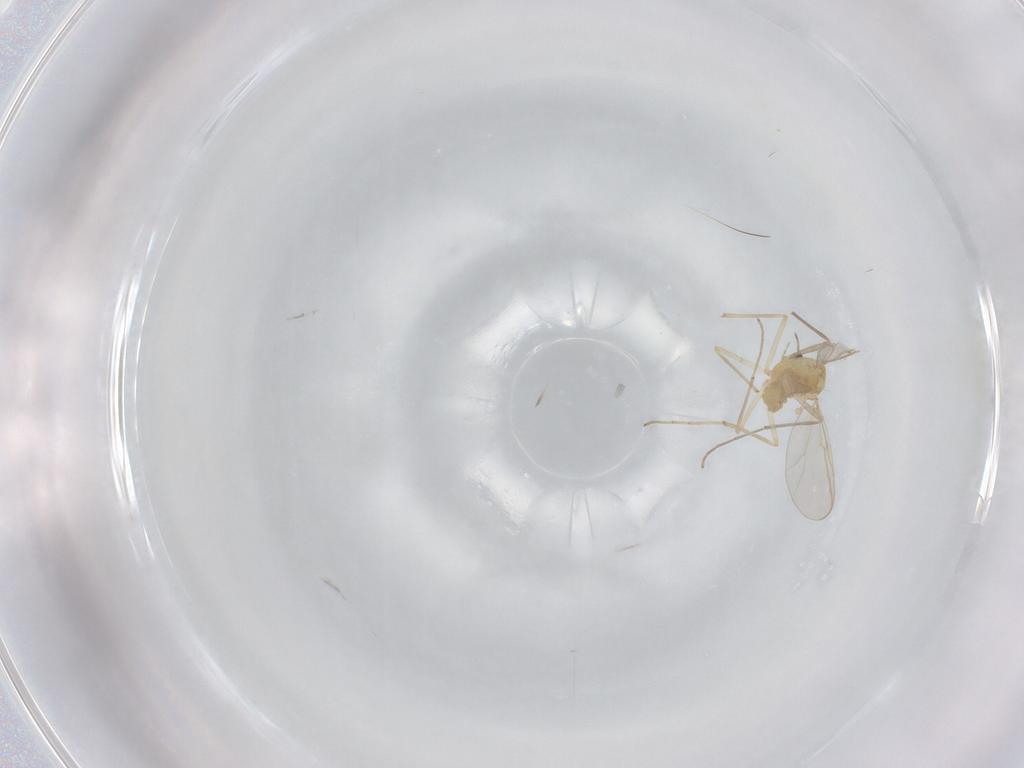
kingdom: Animalia
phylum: Arthropoda
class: Insecta
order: Diptera
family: Chironomidae
